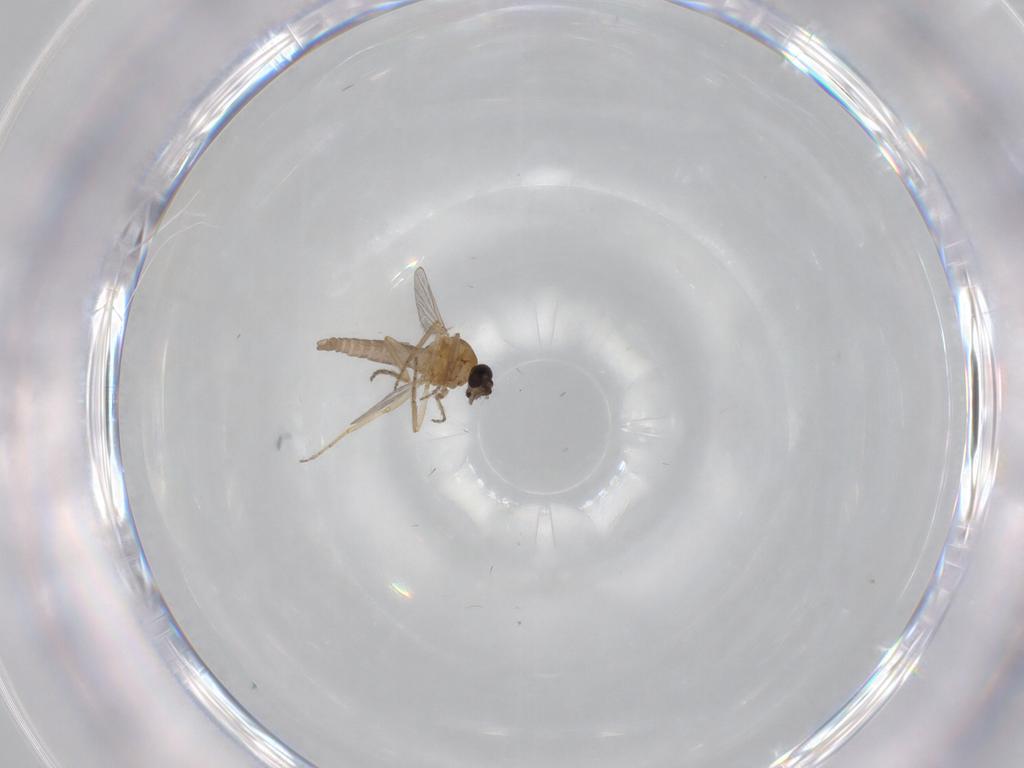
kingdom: Animalia
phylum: Arthropoda
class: Insecta
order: Diptera
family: Ceratopogonidae
